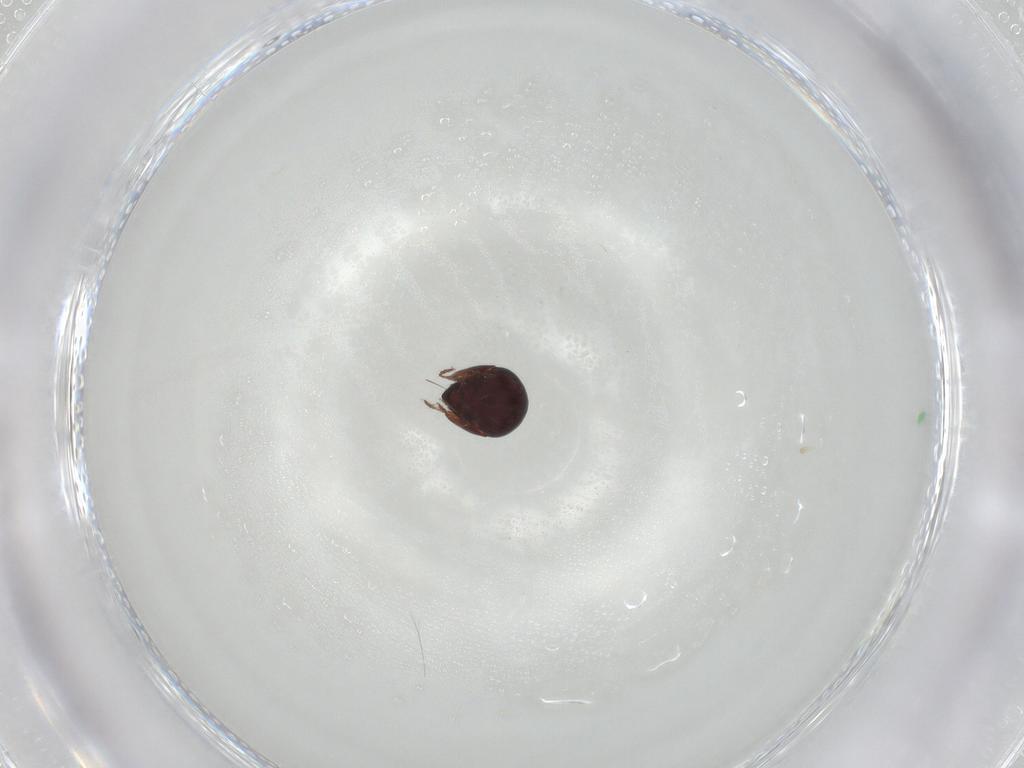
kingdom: Animalia
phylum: Arthropoda
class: Arachnida
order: Sarcoptiformes
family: Galumnidae
